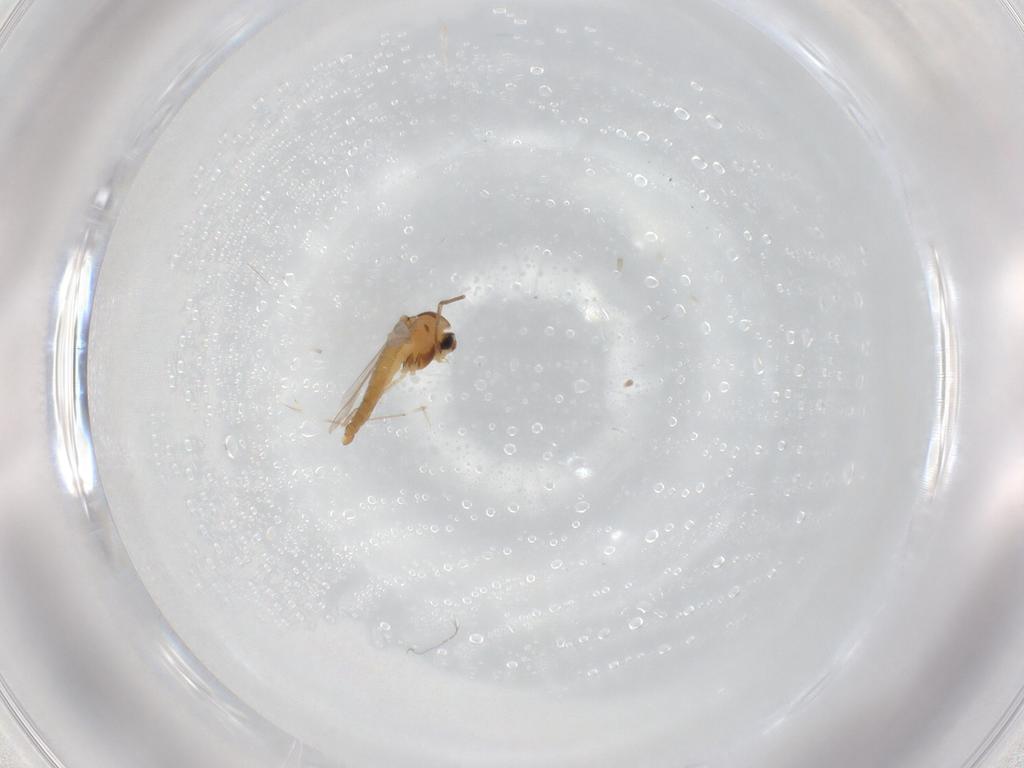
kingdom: Animalia
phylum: Arthropoda
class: Insecta
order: Diptera
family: Chironomidae
